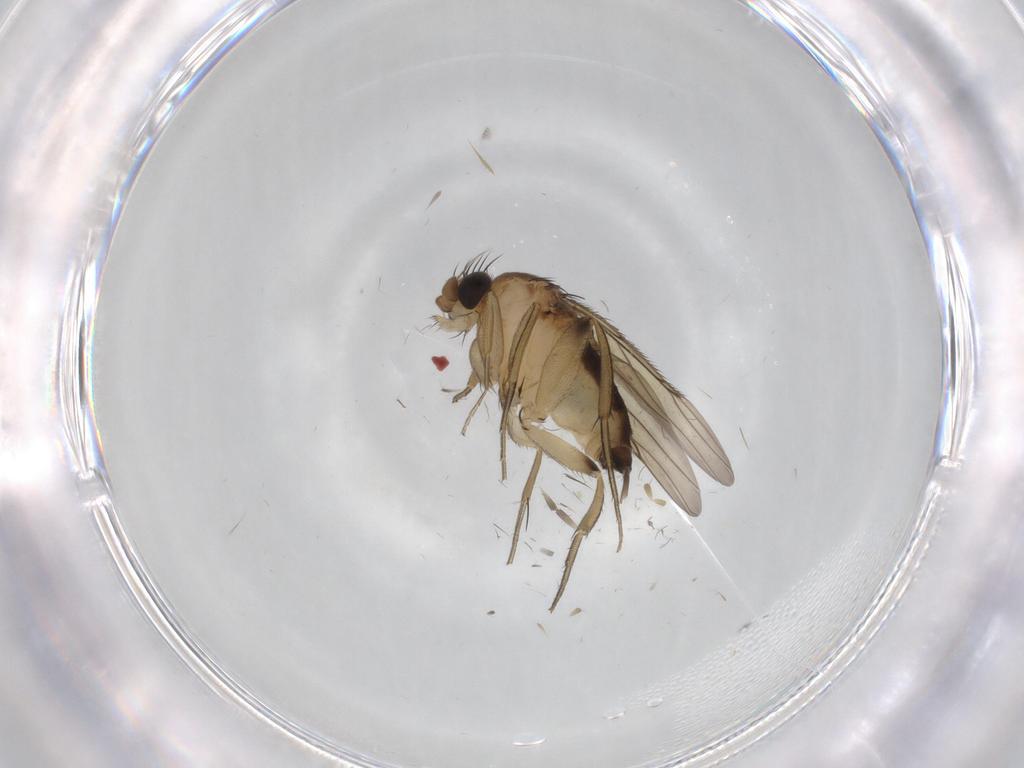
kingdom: Animalia
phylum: Arthropoda
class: Insecta
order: Diptera
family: Phoridae
